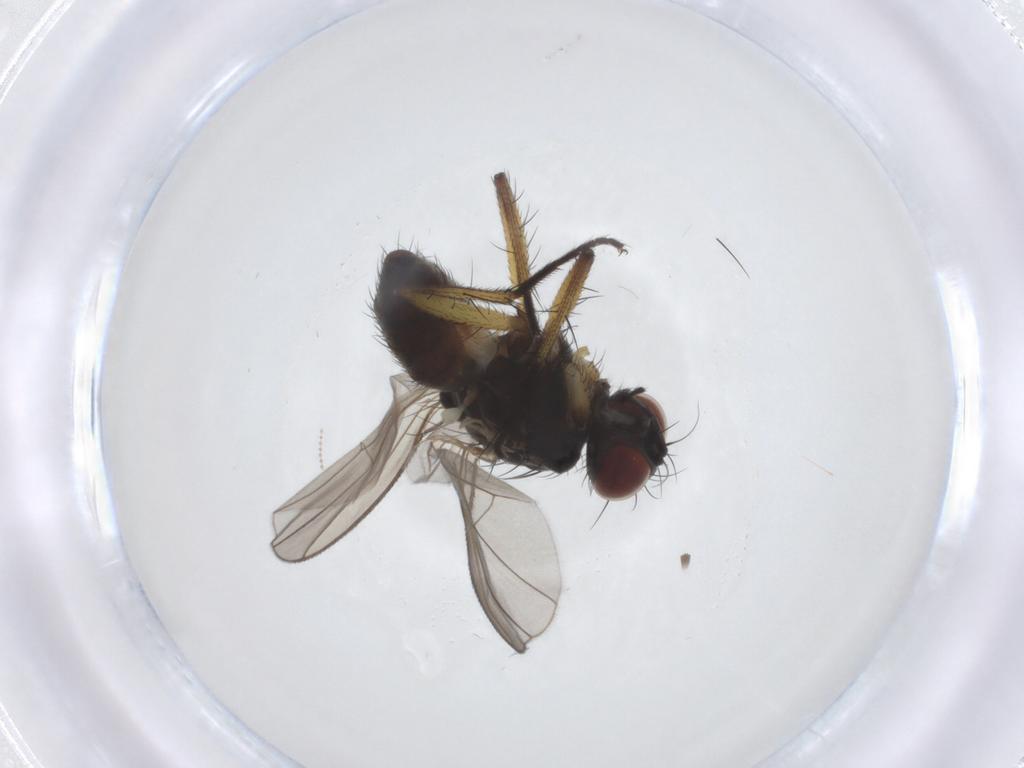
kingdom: Animalia
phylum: Arthropoda
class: Insecta
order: Diptera
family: Muscidae
